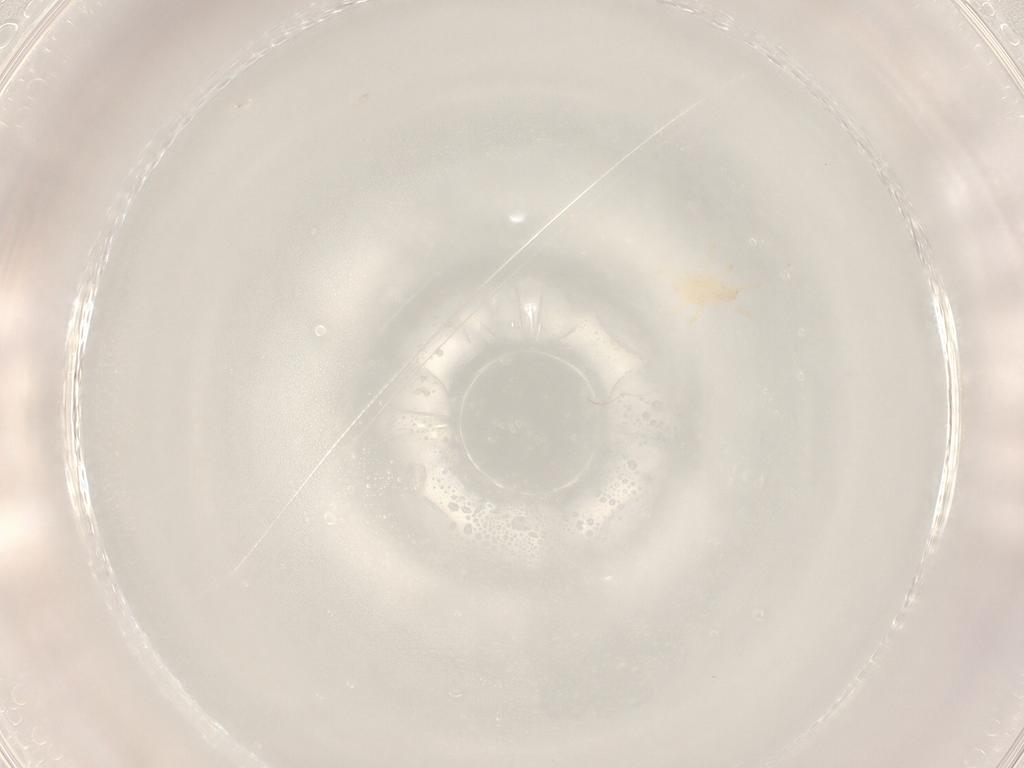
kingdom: Animalia
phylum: Arthropoda
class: Arachnida
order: Mesostigmata
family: Laelapidae
